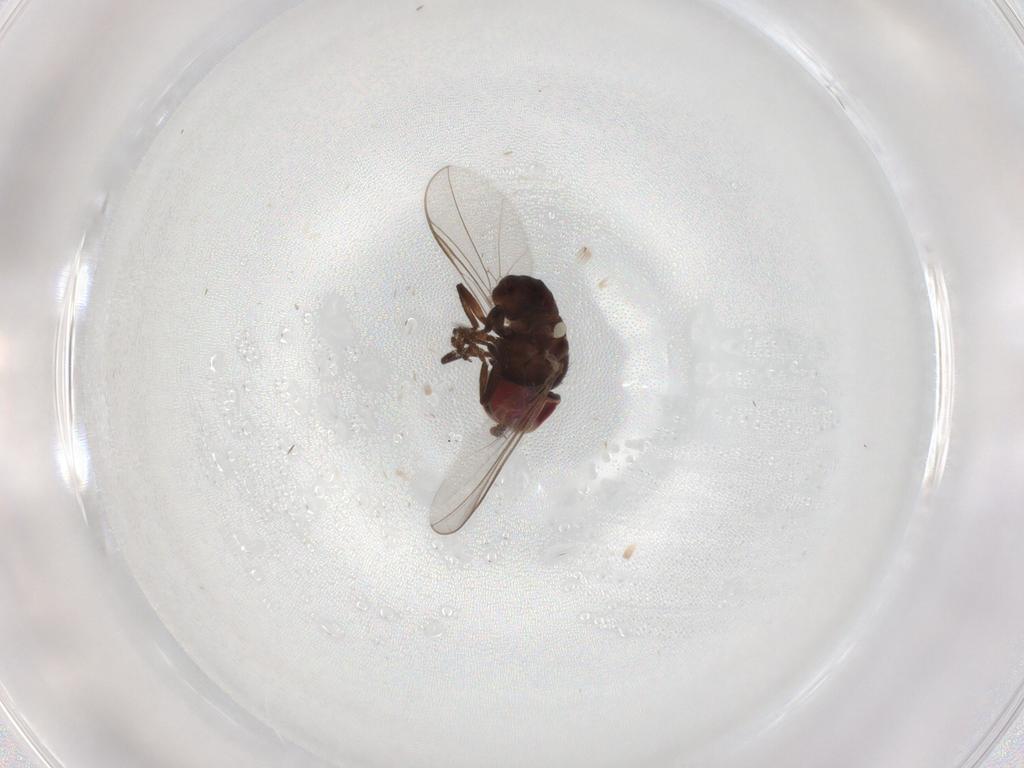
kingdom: Animalia
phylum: Arthropoda
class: Insecta
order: Diptera
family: Pipunculidae
